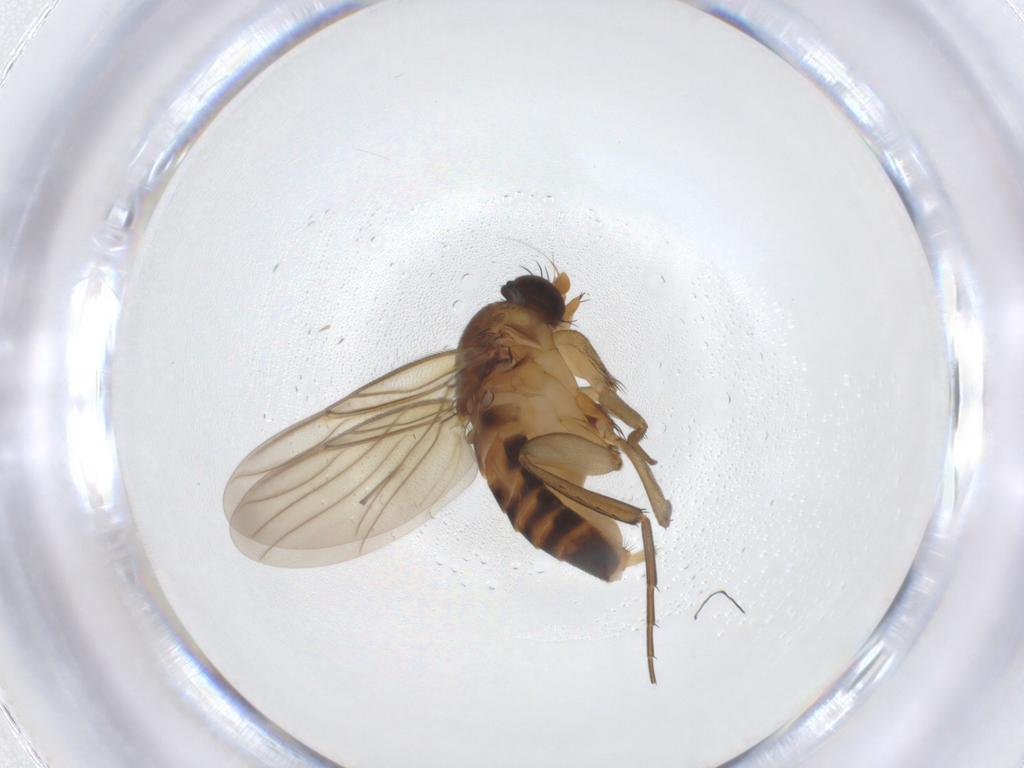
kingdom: Animalia
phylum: Arthropoda
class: Insecta
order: Diptera
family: Phoridae
